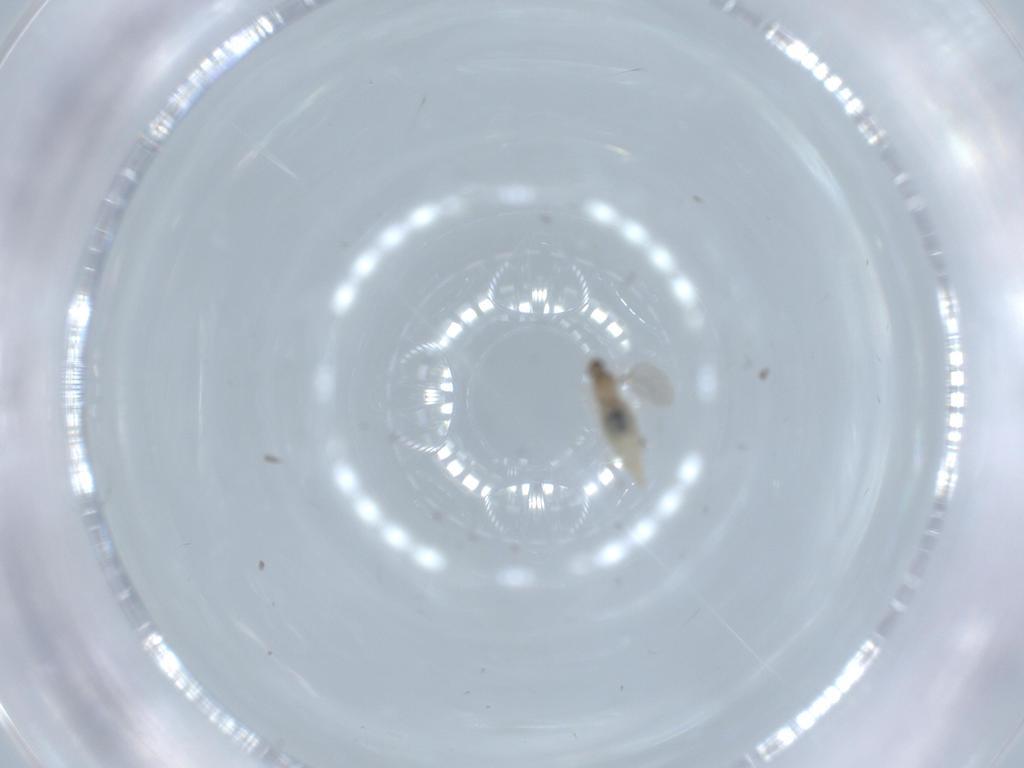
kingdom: Animalia
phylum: Arthropoda
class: Insecta
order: Diptera
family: Cecidomyiidae
